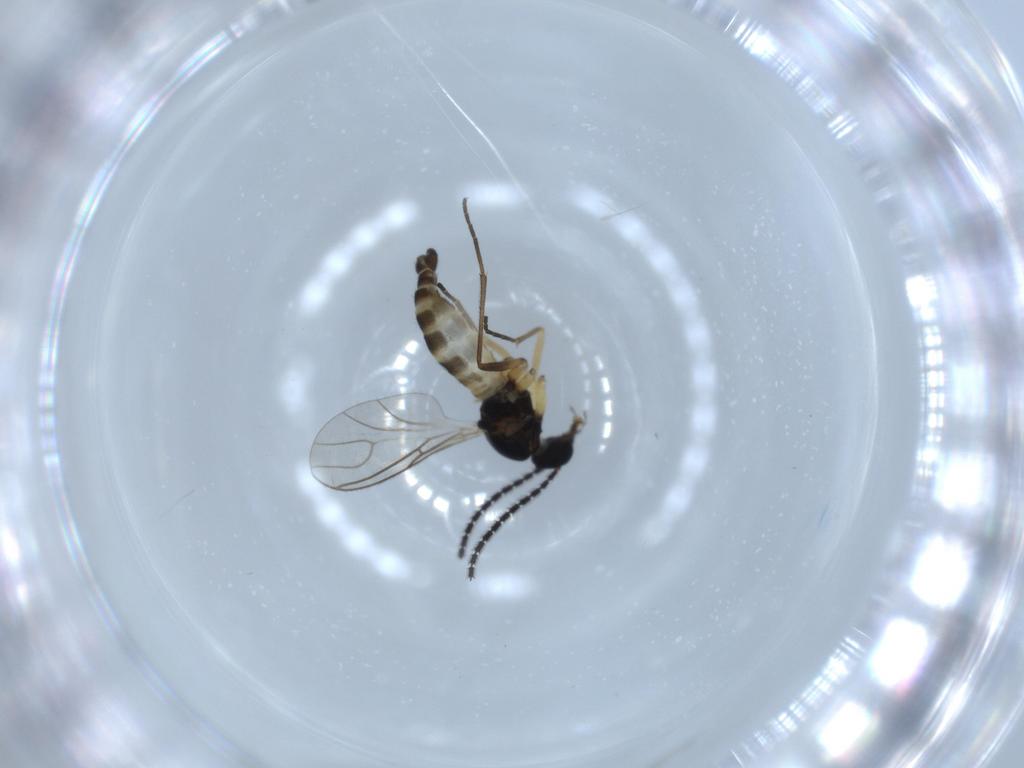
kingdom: Animalia
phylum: Arthropoda
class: Insecta
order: Diptera
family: Sciaridae
